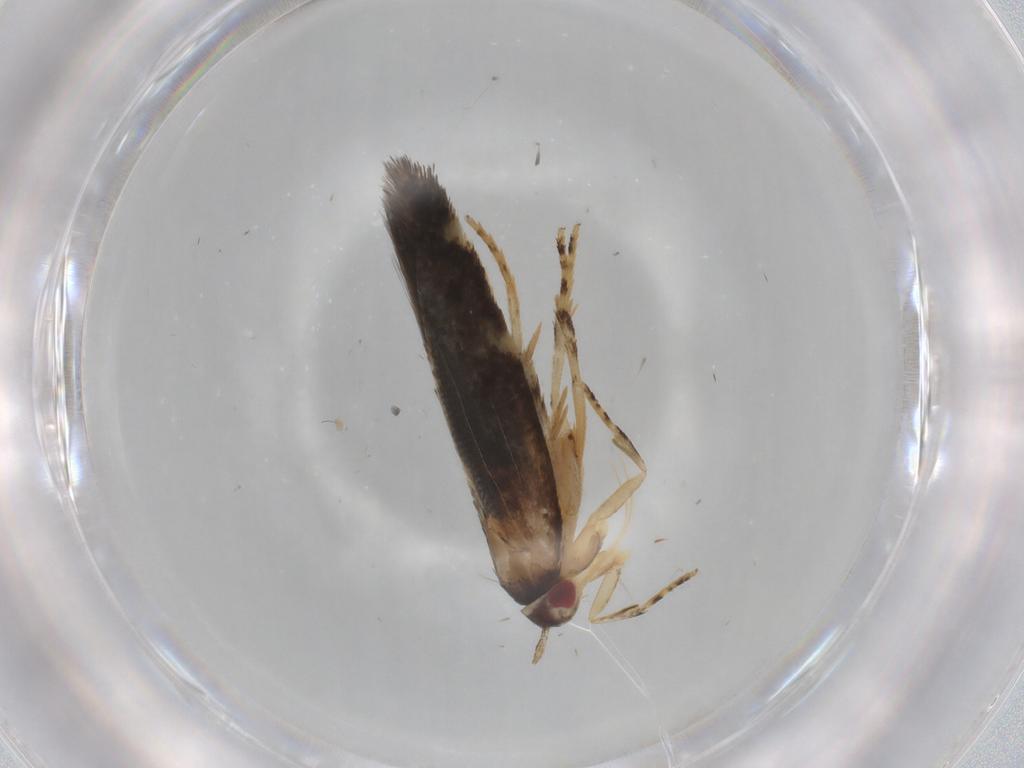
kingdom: Animalia
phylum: Arthropoda
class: Insecta
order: Lepidoptera
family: Cosmopterigidae
